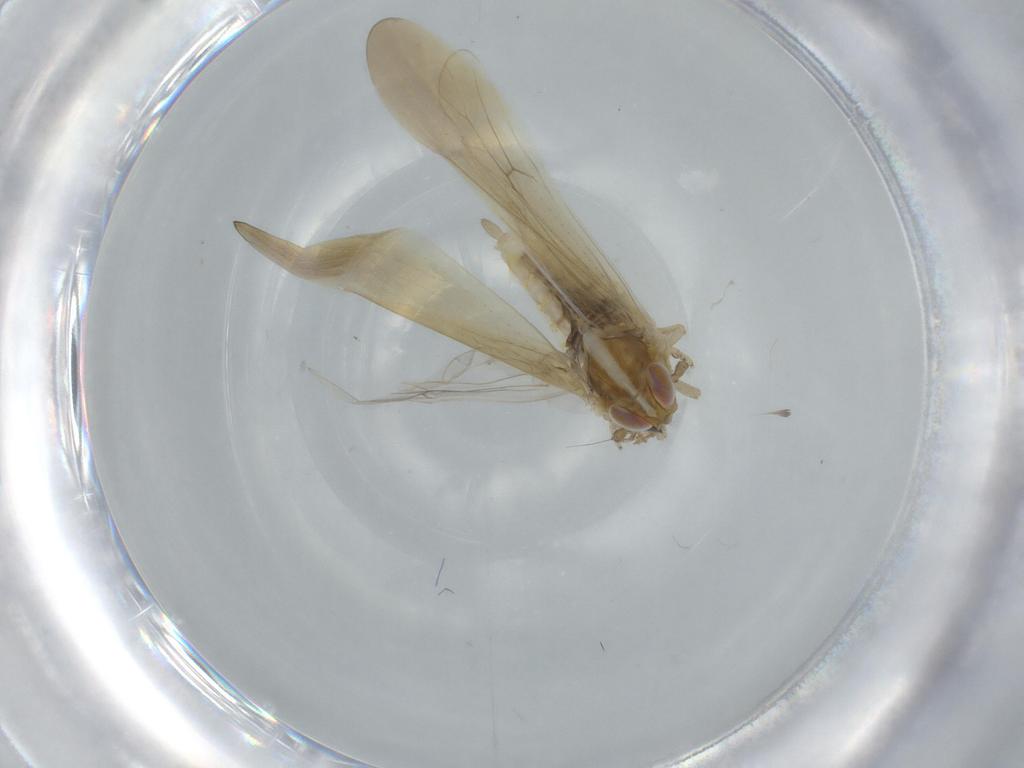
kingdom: Animalia
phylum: Arthropoda
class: Insecta
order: Hemiptera
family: Delphacidae
